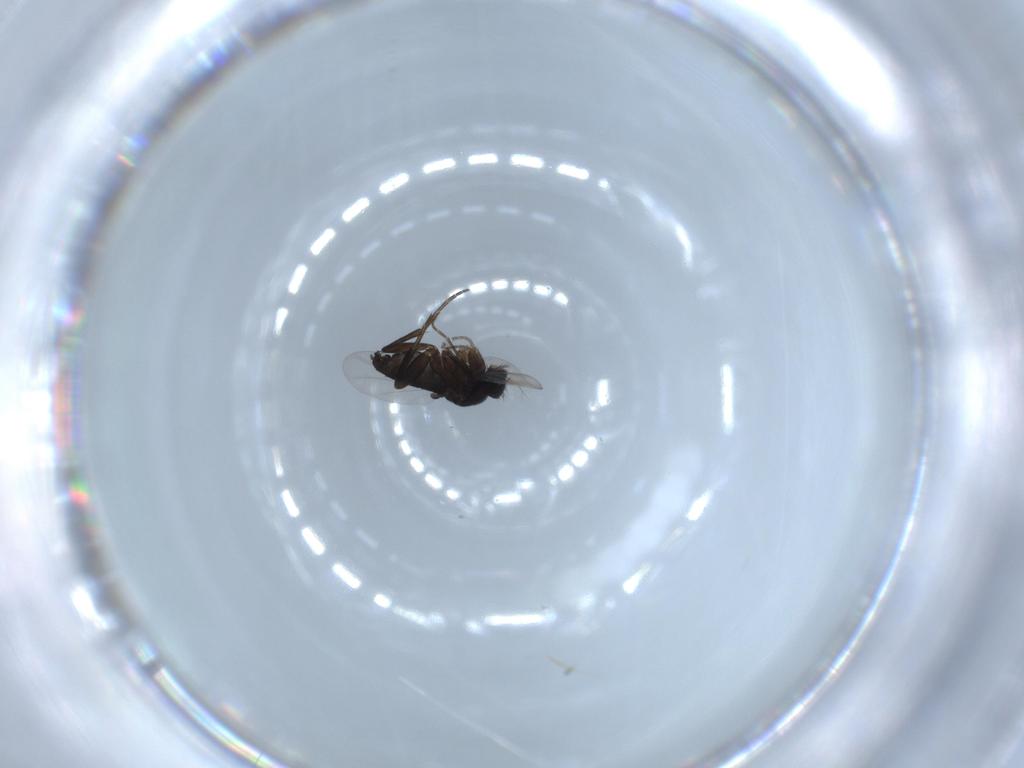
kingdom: Animalia
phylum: Arthropoda
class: Insecta
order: Diptera
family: Phoridae
